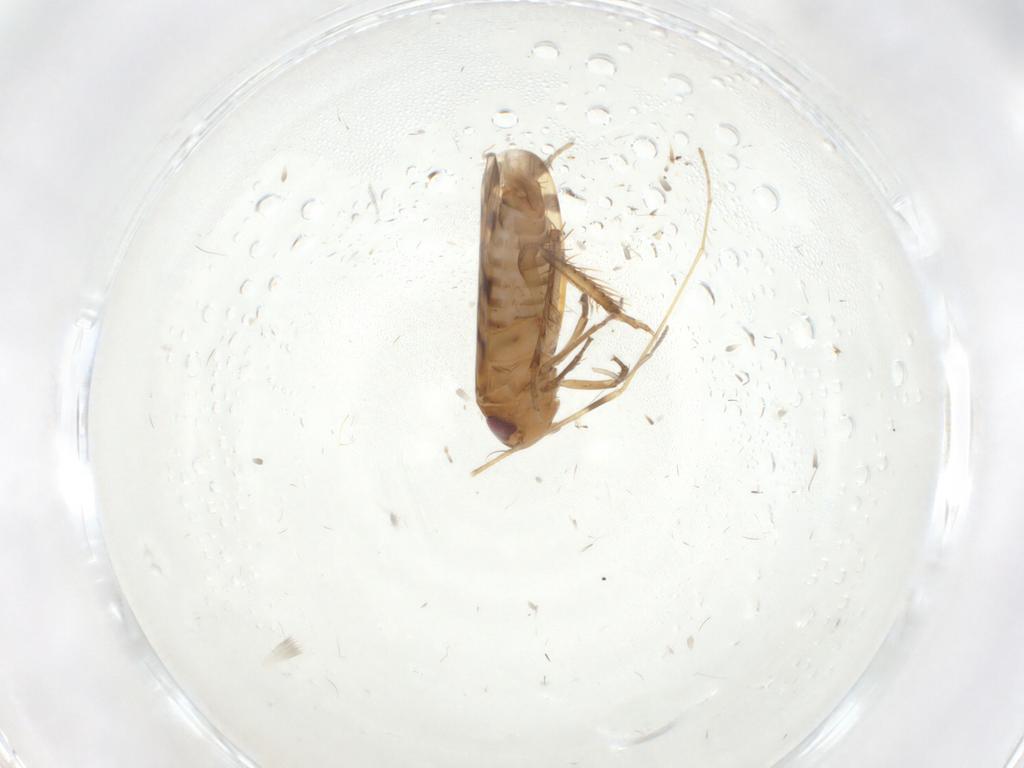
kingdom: Animalia
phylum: Arthropoda
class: Insecta
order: Hemiptera
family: Cicadellidae
